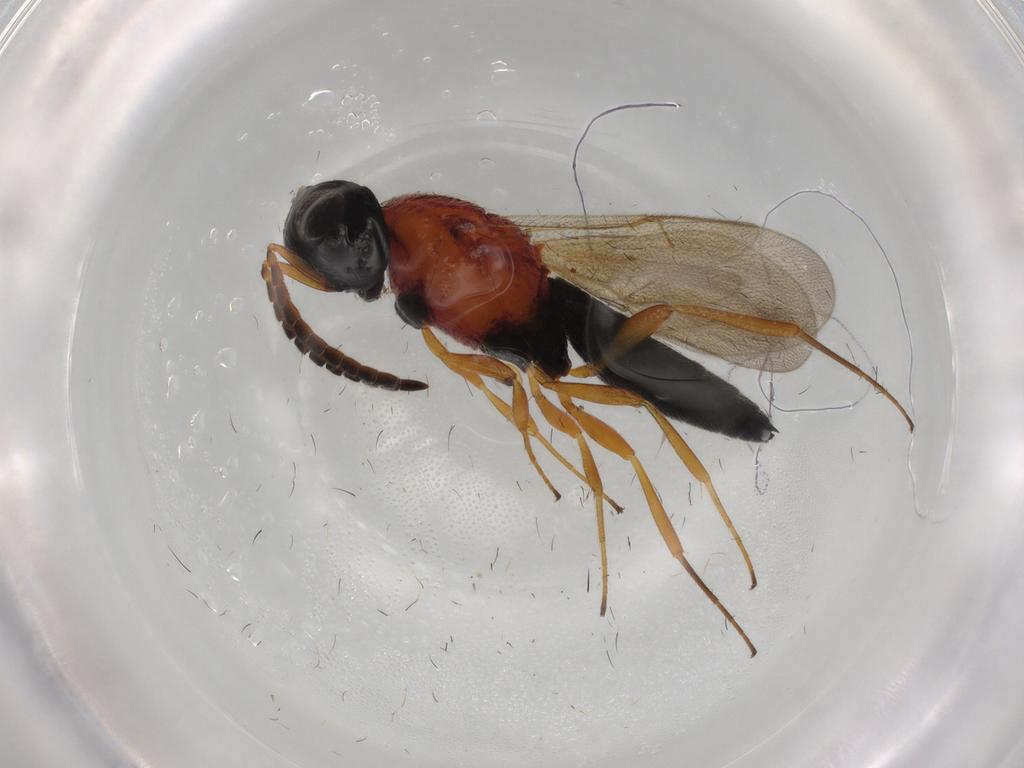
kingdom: Animalia
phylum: Arthropoda
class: Insecta
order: Hymenoptera
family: Scelionidae
